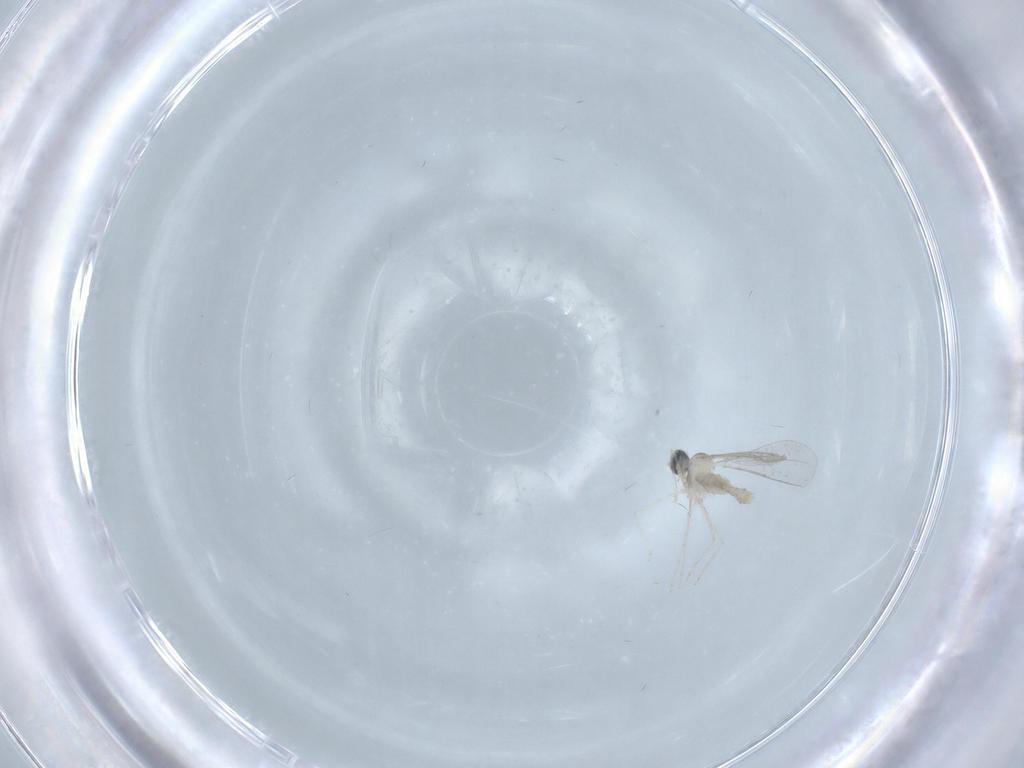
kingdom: Animalia
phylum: Arthropoda
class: Insecta
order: Diptera
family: Cecidomyiidae
